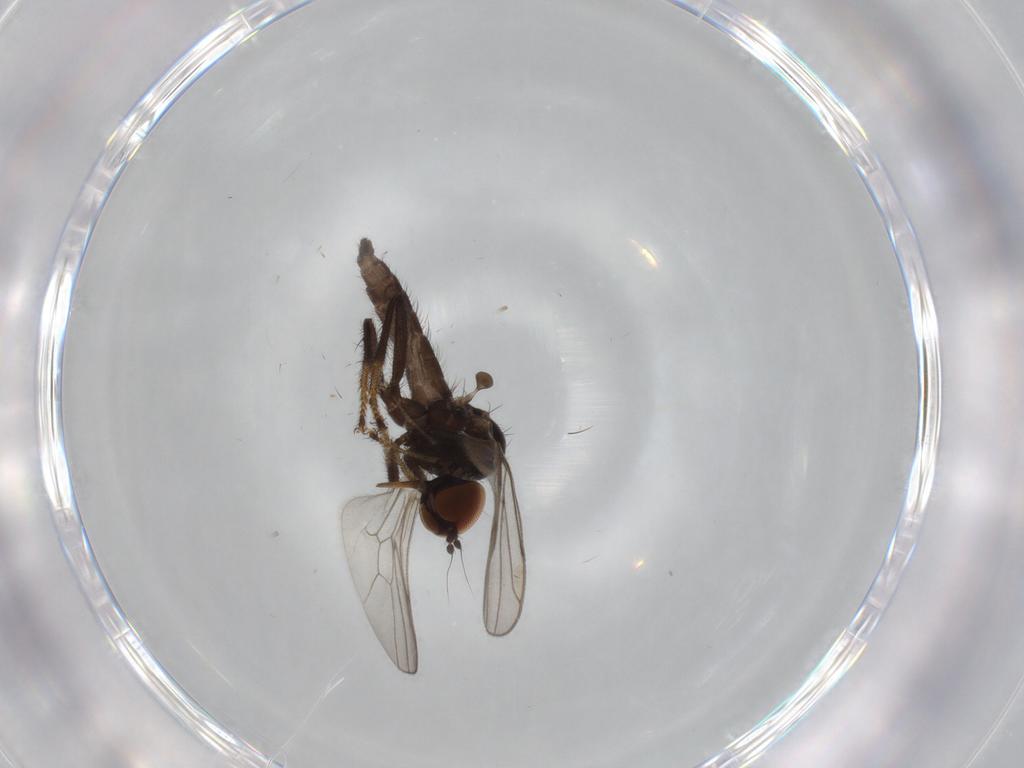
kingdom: Animalia
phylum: Arthropoda
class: Insecta
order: Diptera
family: Hybotidae
